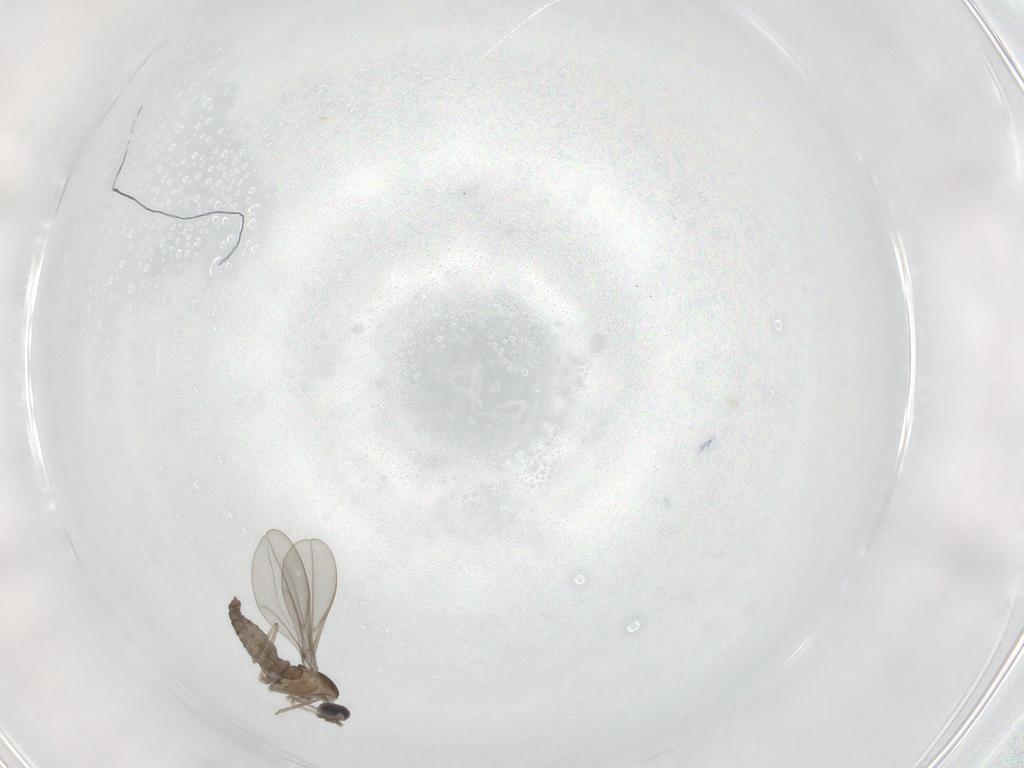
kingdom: Animalia
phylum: Arthropoda
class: Insecta
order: Diptera
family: Cecidomyiidae
